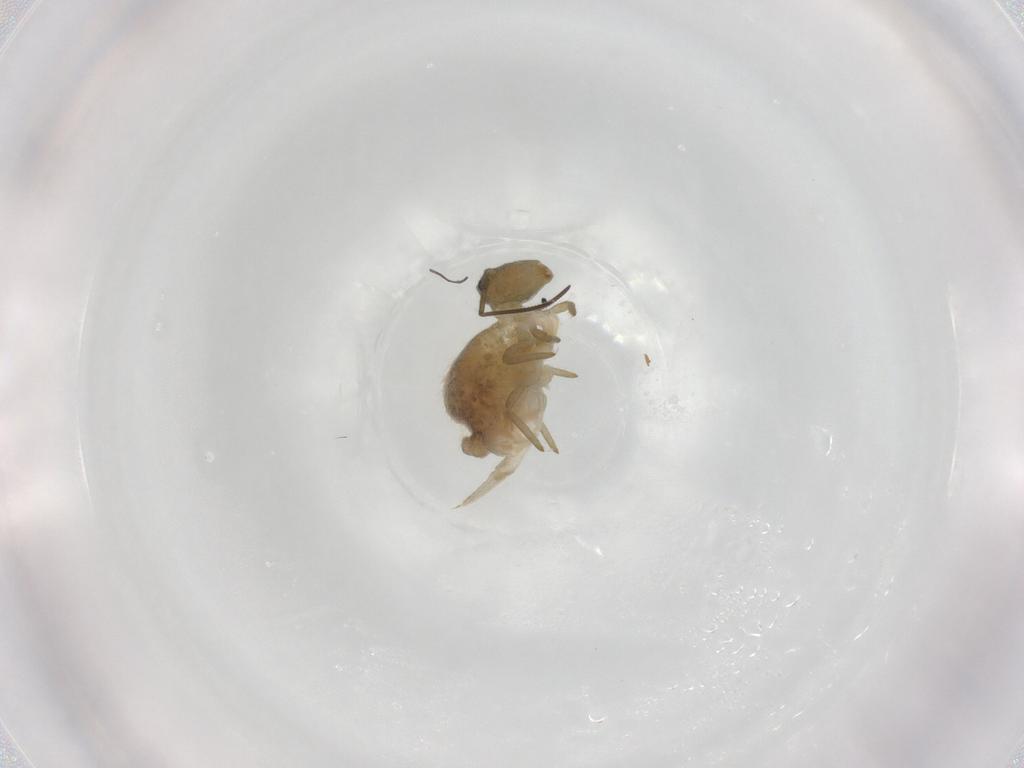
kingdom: Animalia
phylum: Arthropoda
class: Collembola
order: Symphypleona
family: Sminthuridae
